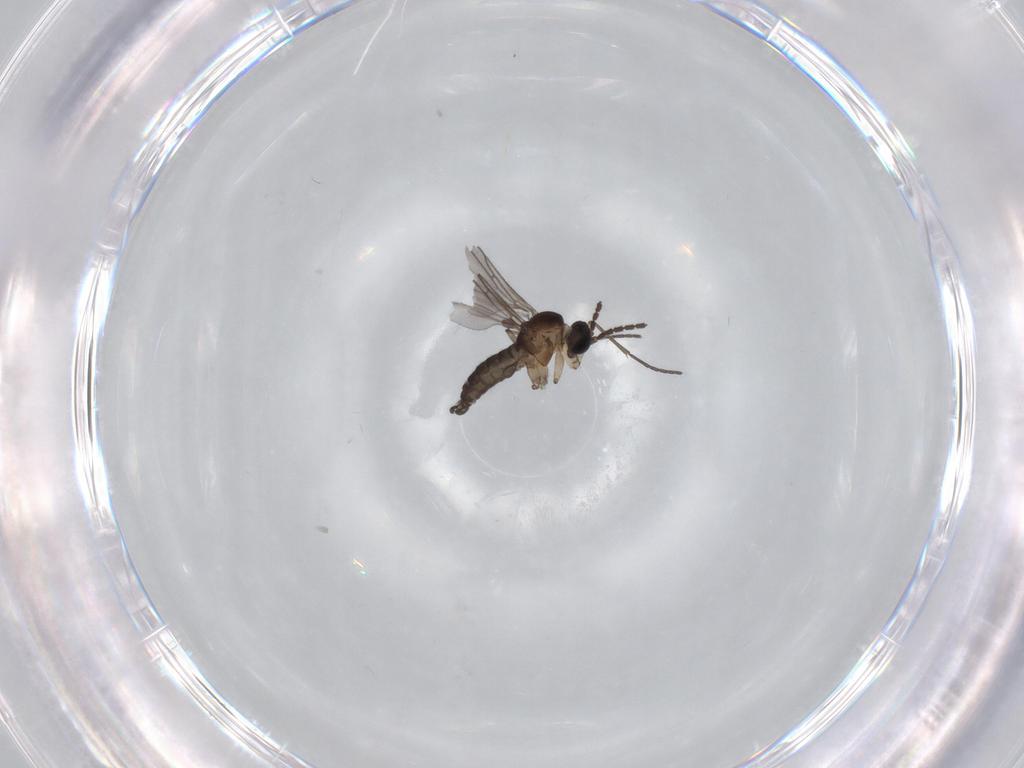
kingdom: Animalia
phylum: Arthropoda
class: Insecta
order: Diptera
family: Sciaridae
